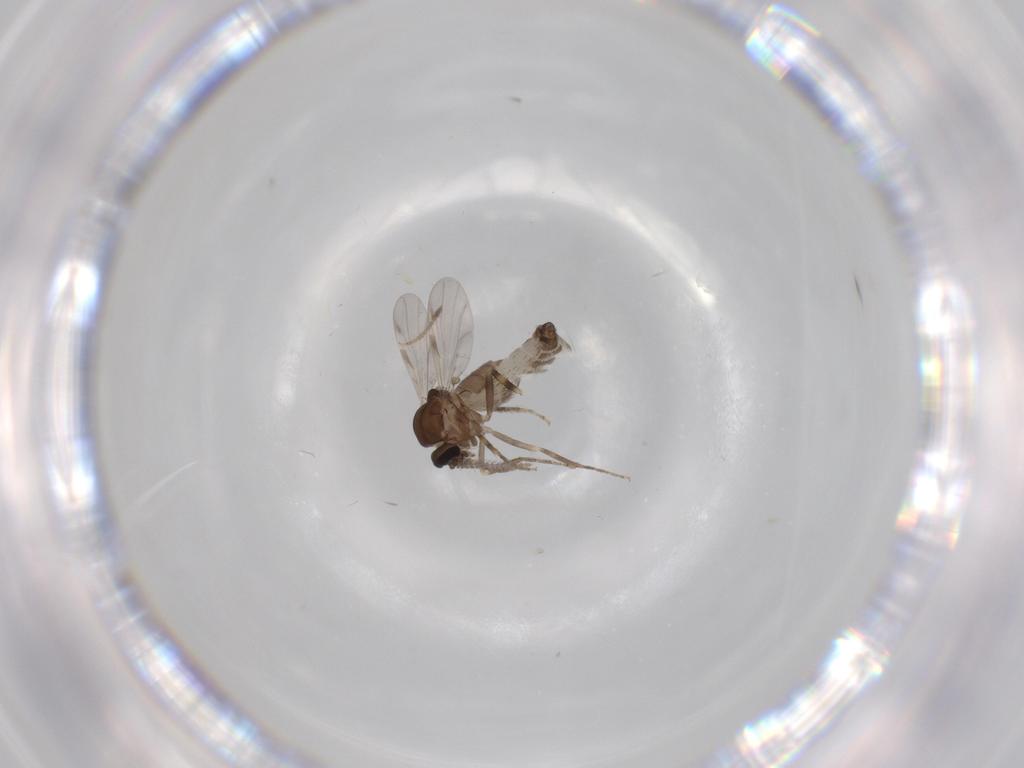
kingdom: Animalia
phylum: Arthropoda
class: Insecta
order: Diptera
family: Ceratopogonidae
